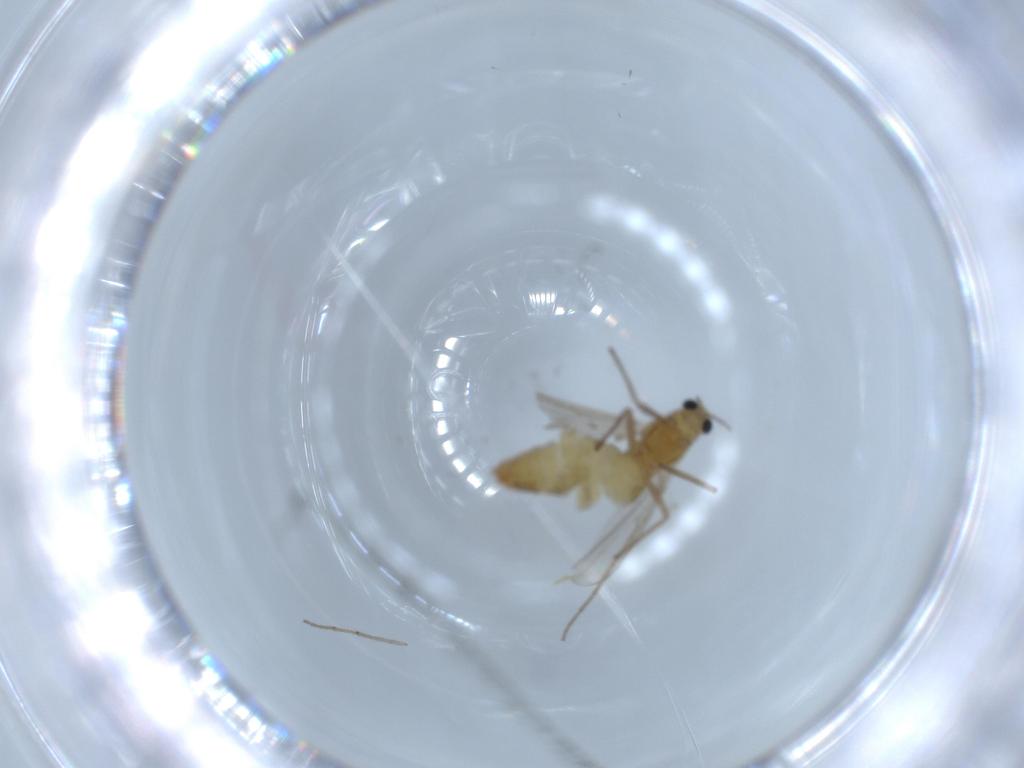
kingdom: Animalia
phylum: Arthropoda
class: Insecta
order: Diptera
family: Chironomidae
